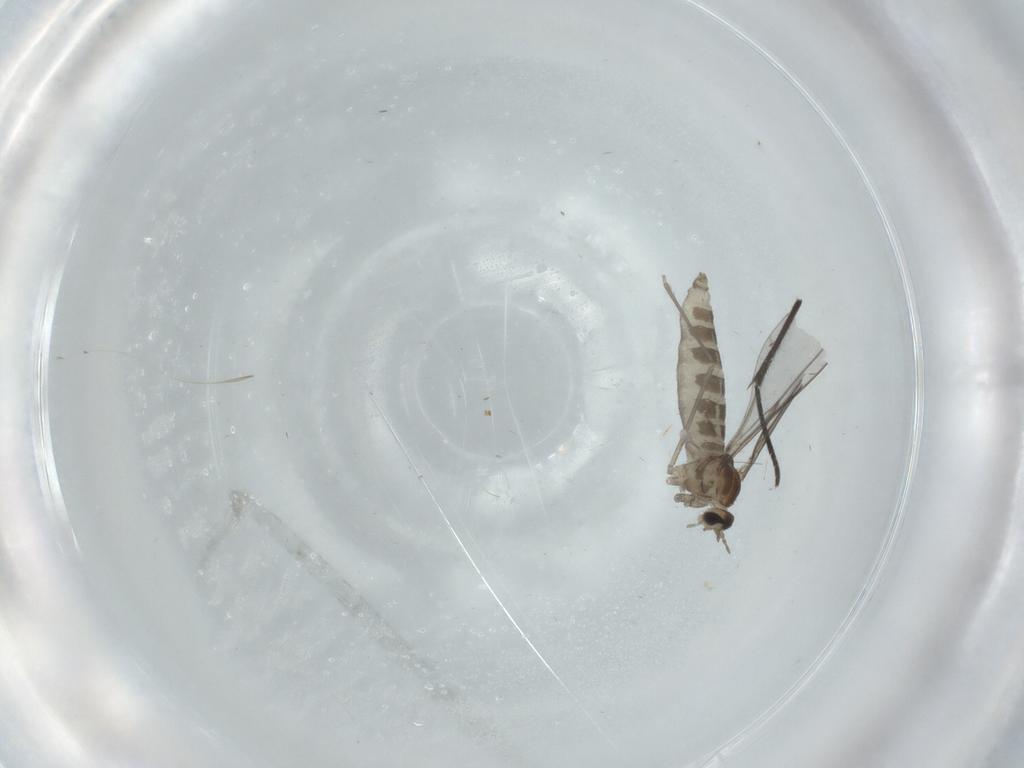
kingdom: Animalia
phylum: Arthropoda
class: Insecta
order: Diptera
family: Cecidomyiidae
